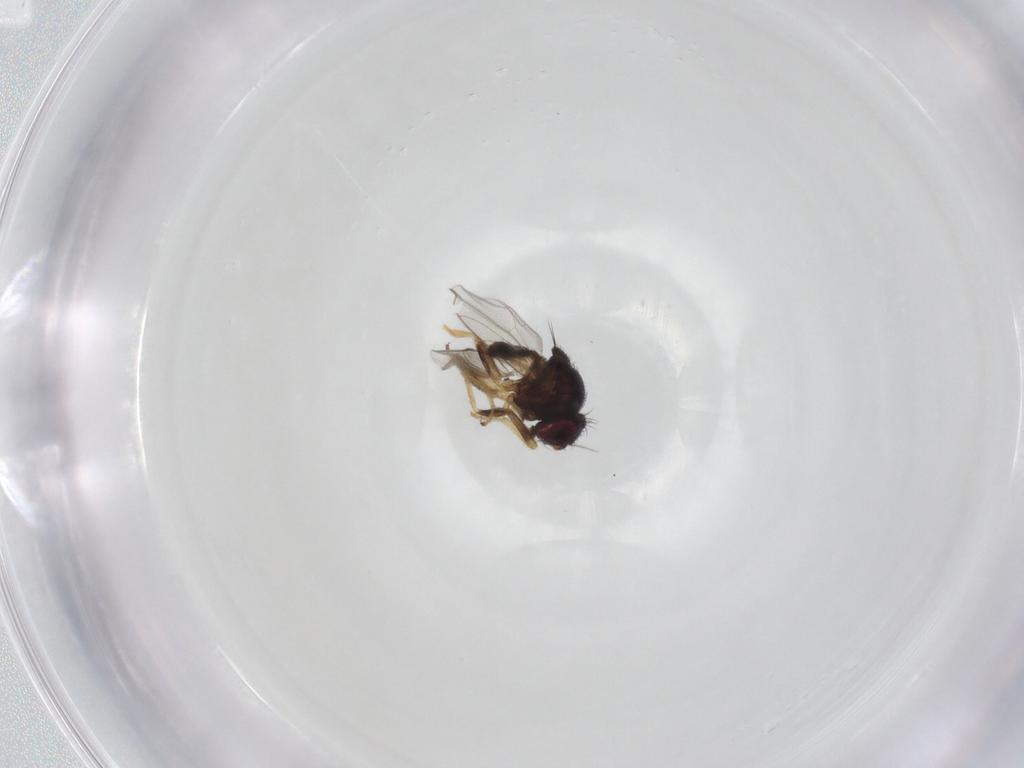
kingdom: Animalia
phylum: Arthropoda
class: Insecta
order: Diptera
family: Chloropidae
